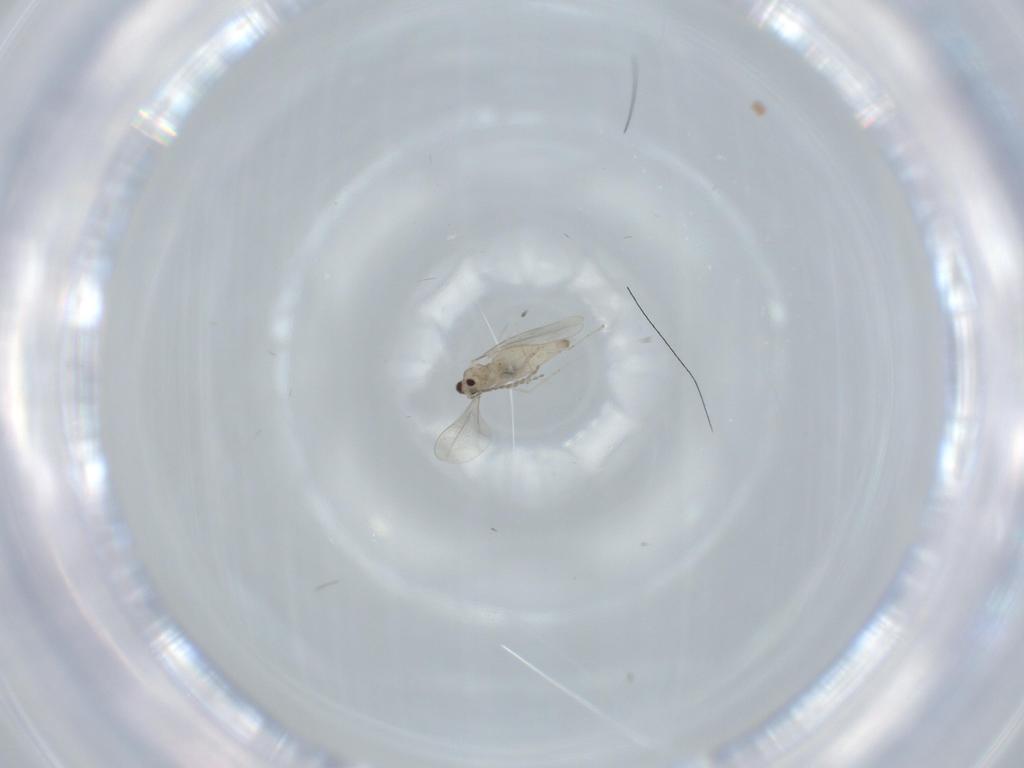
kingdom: Animalia
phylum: Arthropoda
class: Insecta
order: Diptera
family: Cecidomyiidae
